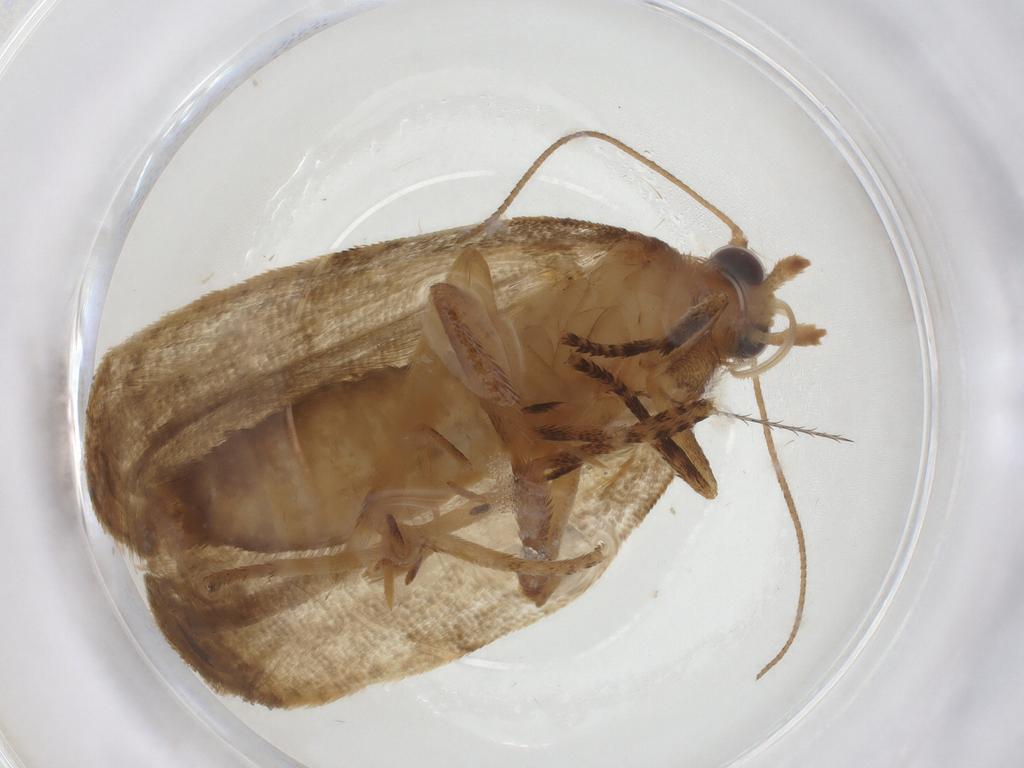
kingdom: Animalia
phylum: Arthropoda
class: Insecta
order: Lepidoptera
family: Tortricidae
